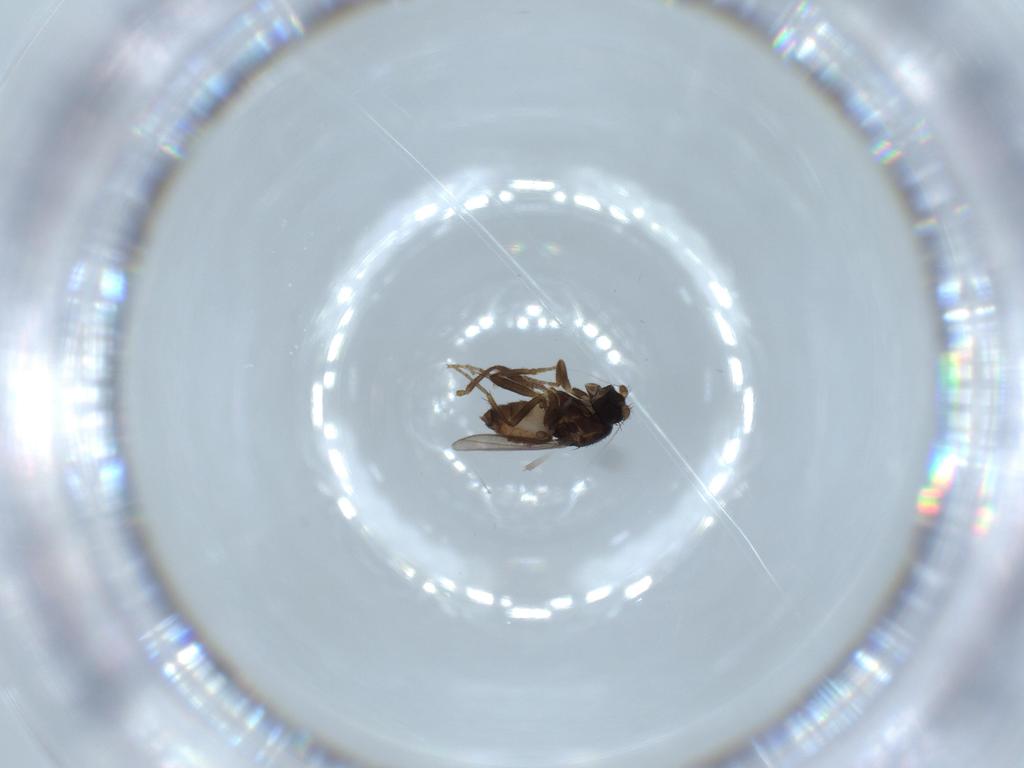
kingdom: Animalia
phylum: Arthropoda
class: Insecta
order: Diptera
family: Sphaeroceridae
